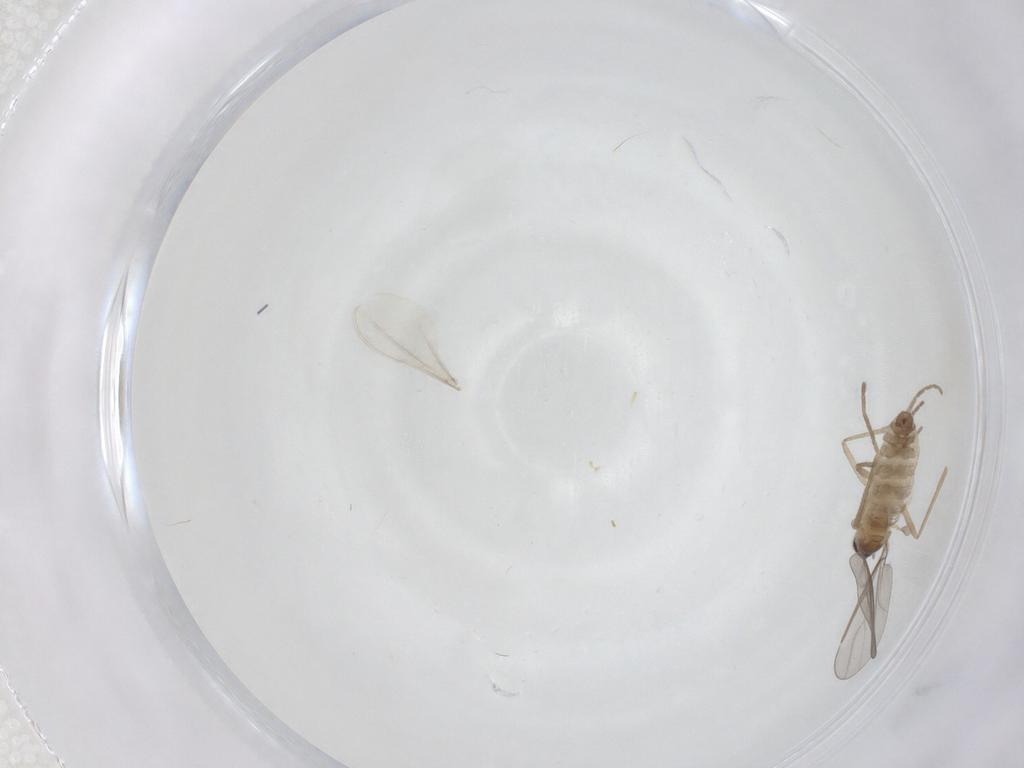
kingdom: Animalia
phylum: Arthropoda
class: Insecta
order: Diptera
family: Cecidomyiidae
